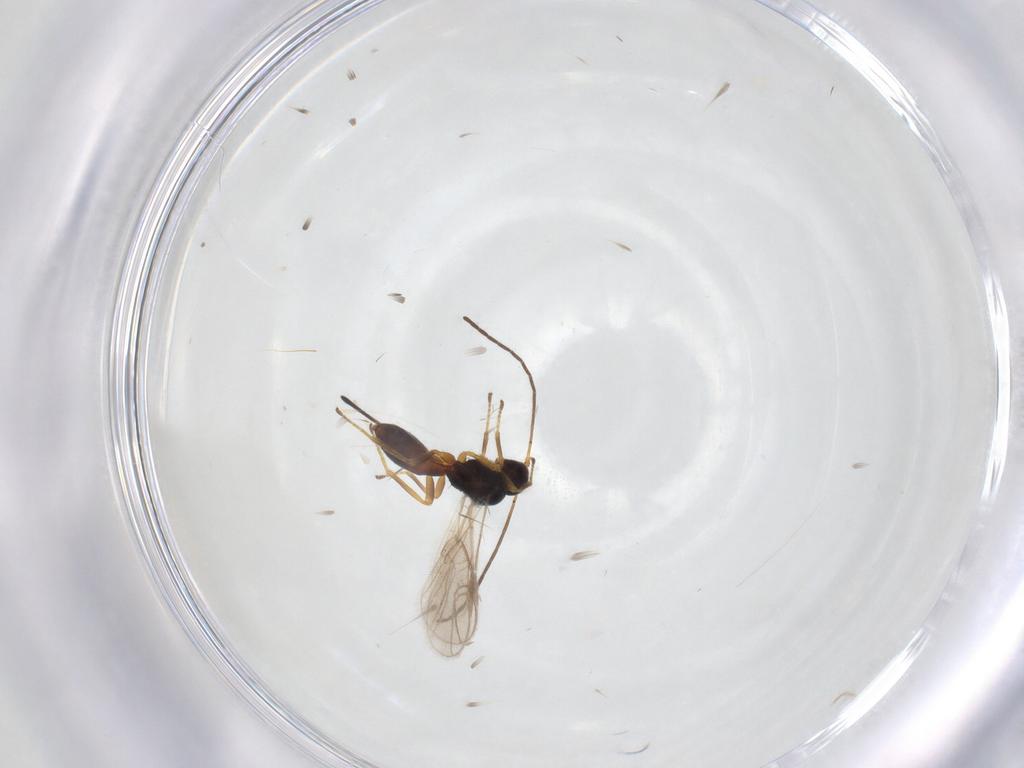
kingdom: Animalia
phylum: Arthropoda
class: Insecta
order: Hymenoptera
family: Braconidae
